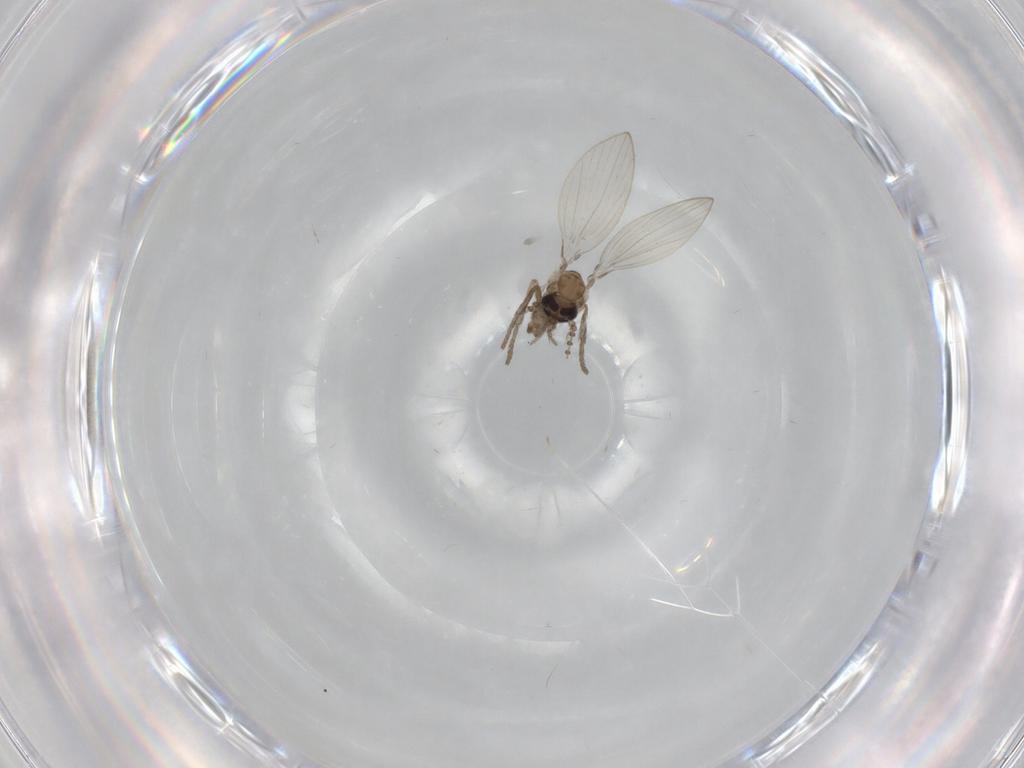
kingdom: Animalia
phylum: Arthropoda
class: Insecta
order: Diptera
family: Psychodidae
